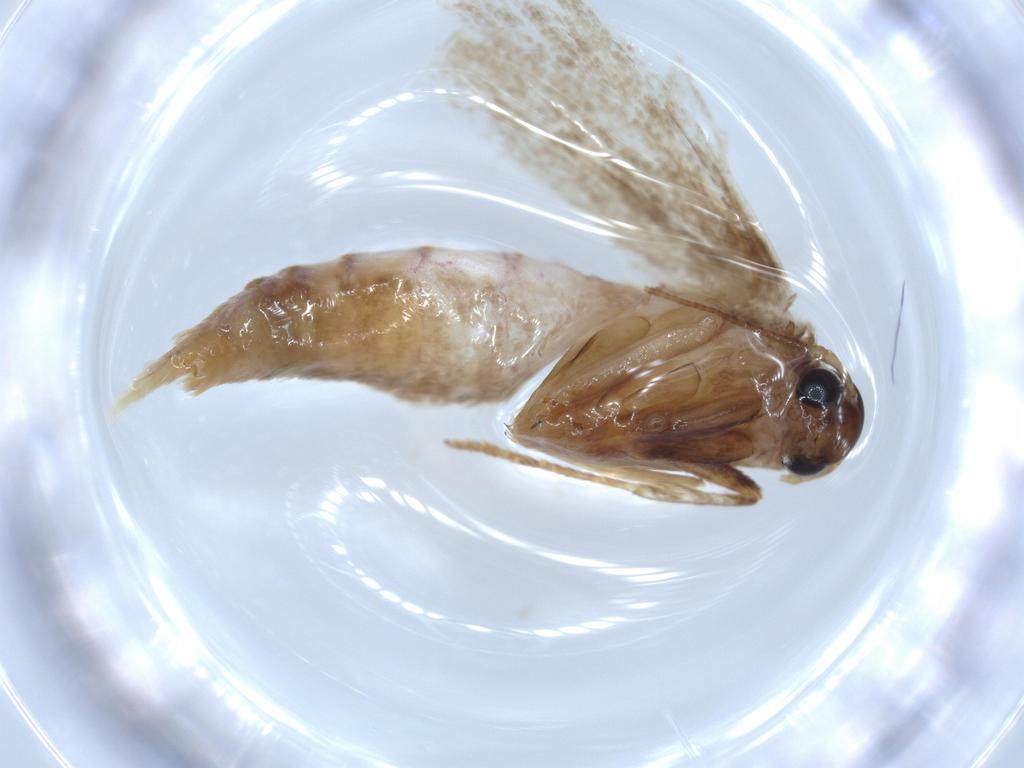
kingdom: Animalia
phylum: Arthropoda
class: Insecta
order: Lepidoptera
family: Blastobasidae
